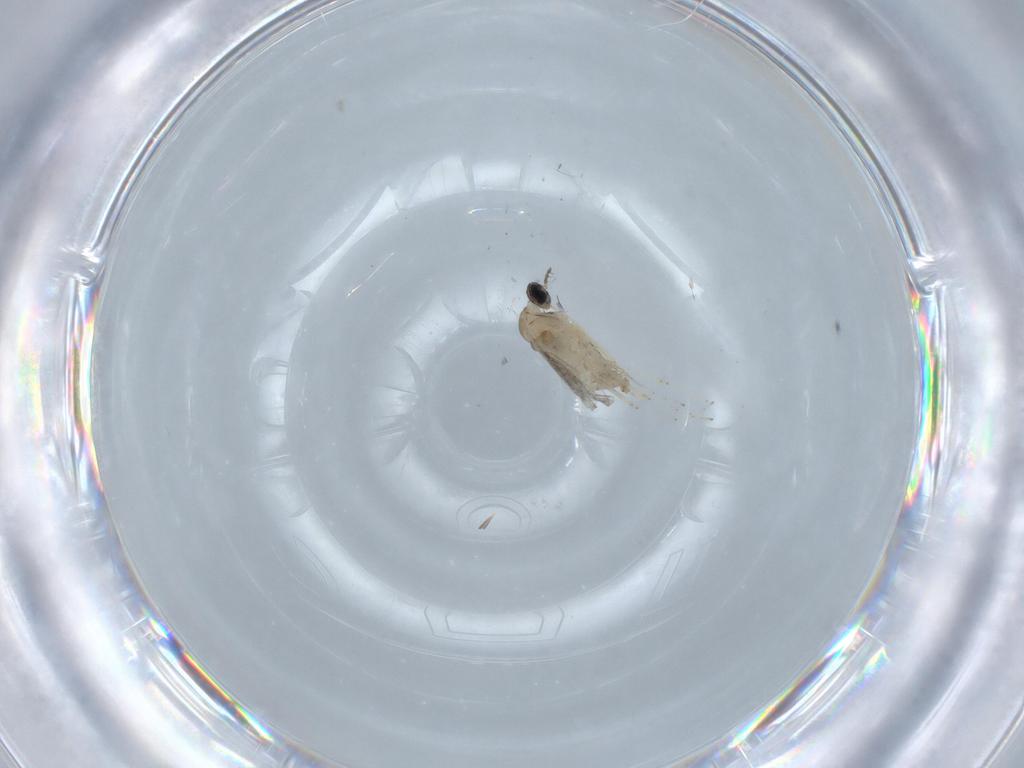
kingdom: Animalia
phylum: Arthropoda
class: Insecta
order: Diptera
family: Cecidomyiidae
